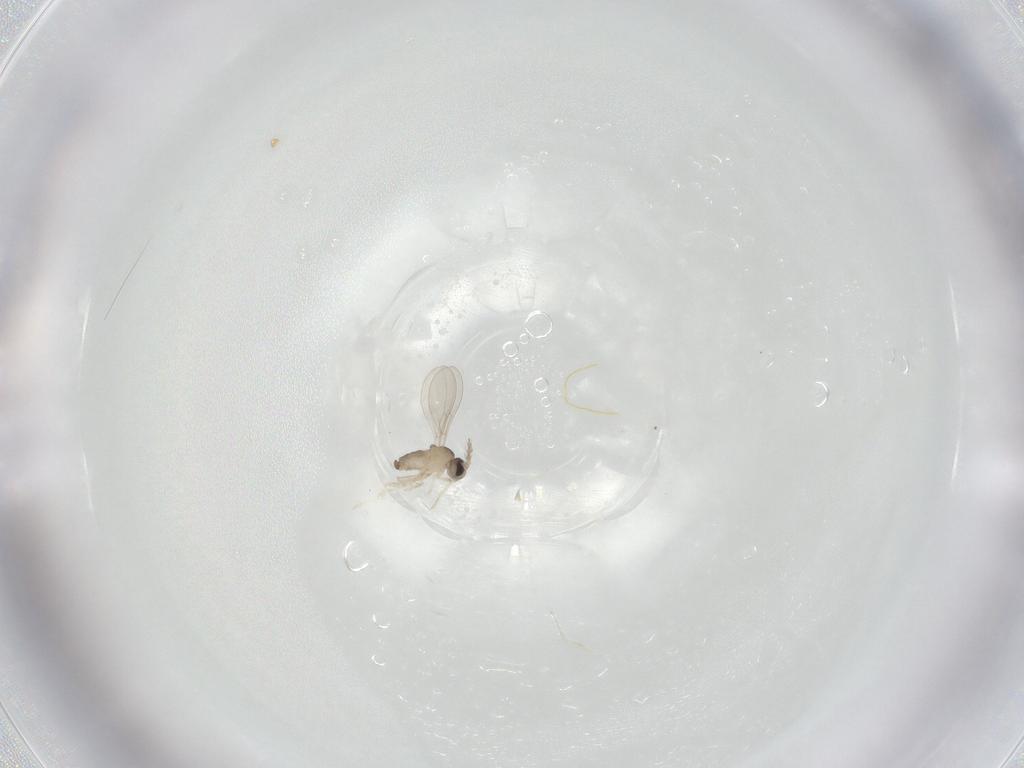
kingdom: Animalia
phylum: Arthropoda
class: Insecta
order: Diptera
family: Cecidomyiidae
